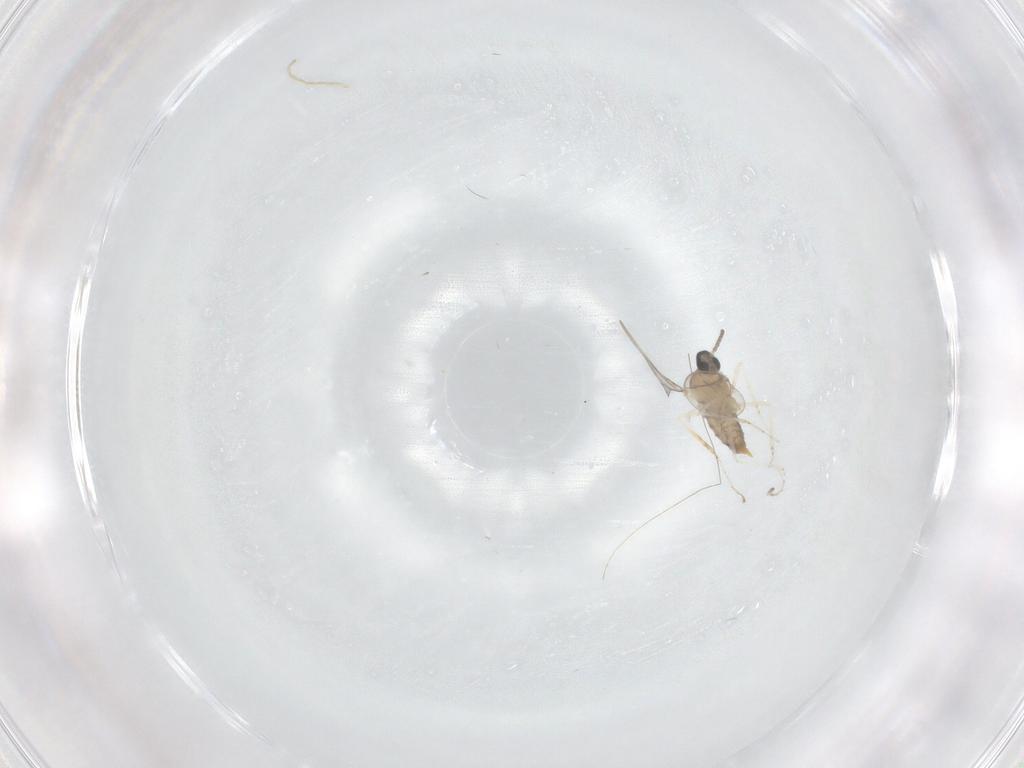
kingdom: Animalia
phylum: Arthropoda
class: Insecta
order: Diptera
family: Cecidomyiidae
